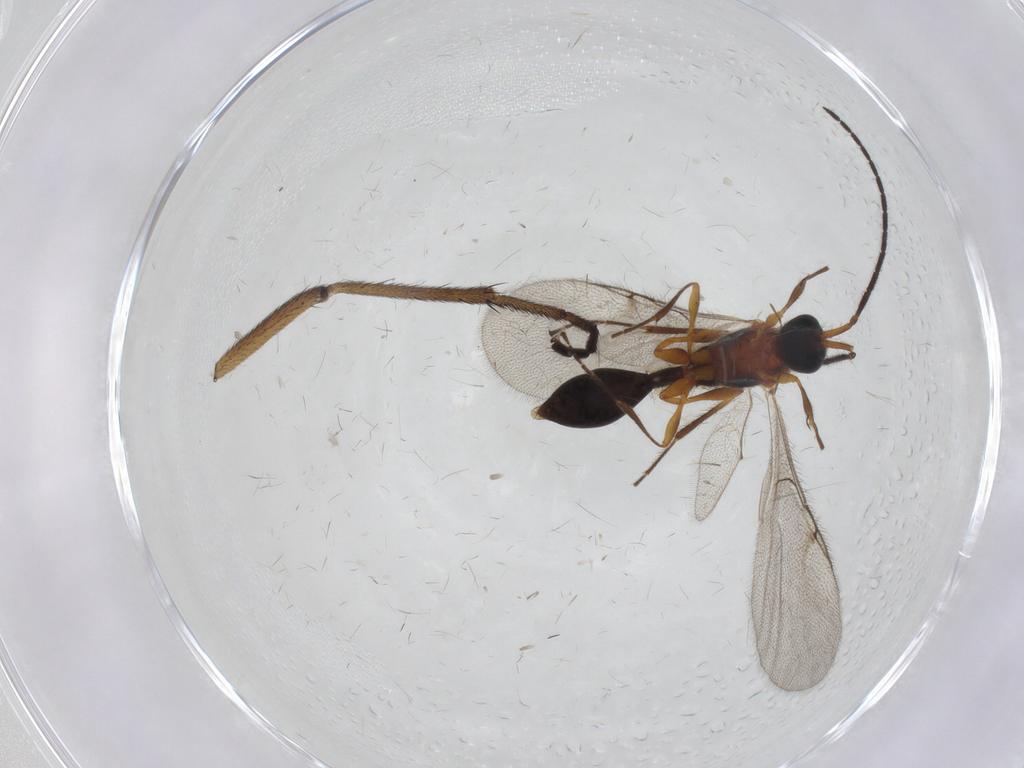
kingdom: Animalia
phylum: Arthropoda
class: Insecta
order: Hymenoptera
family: Diapriidae
